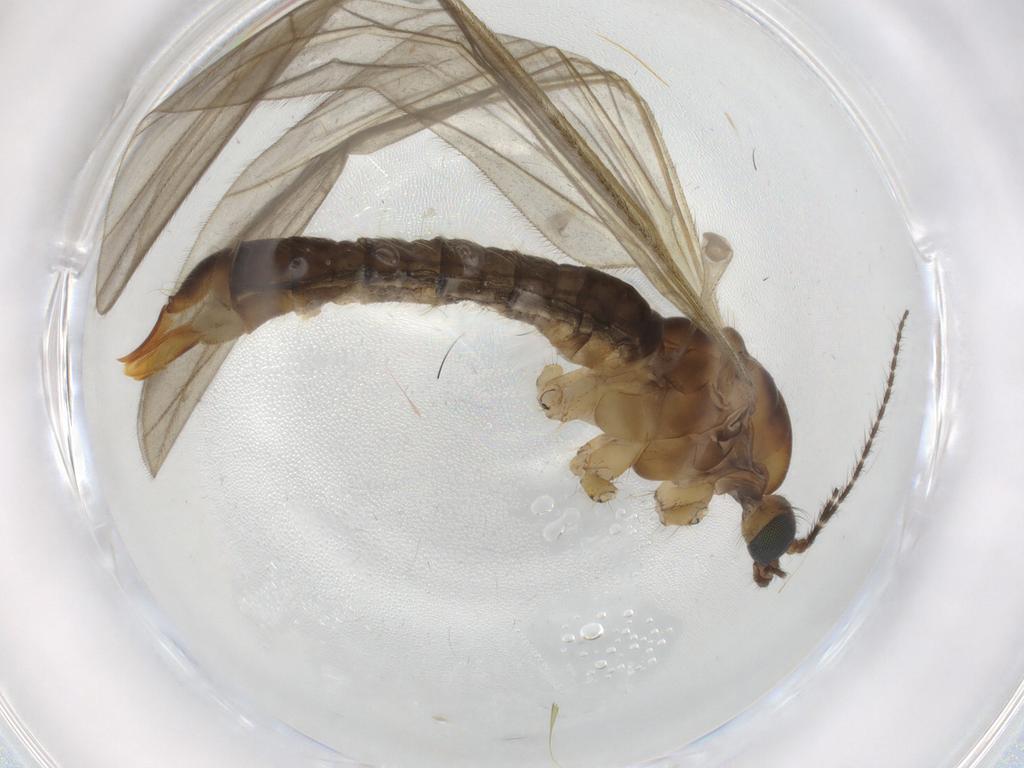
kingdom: Animalia
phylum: Arthropoda
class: Insecta
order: Diptera
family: Chironomidae
